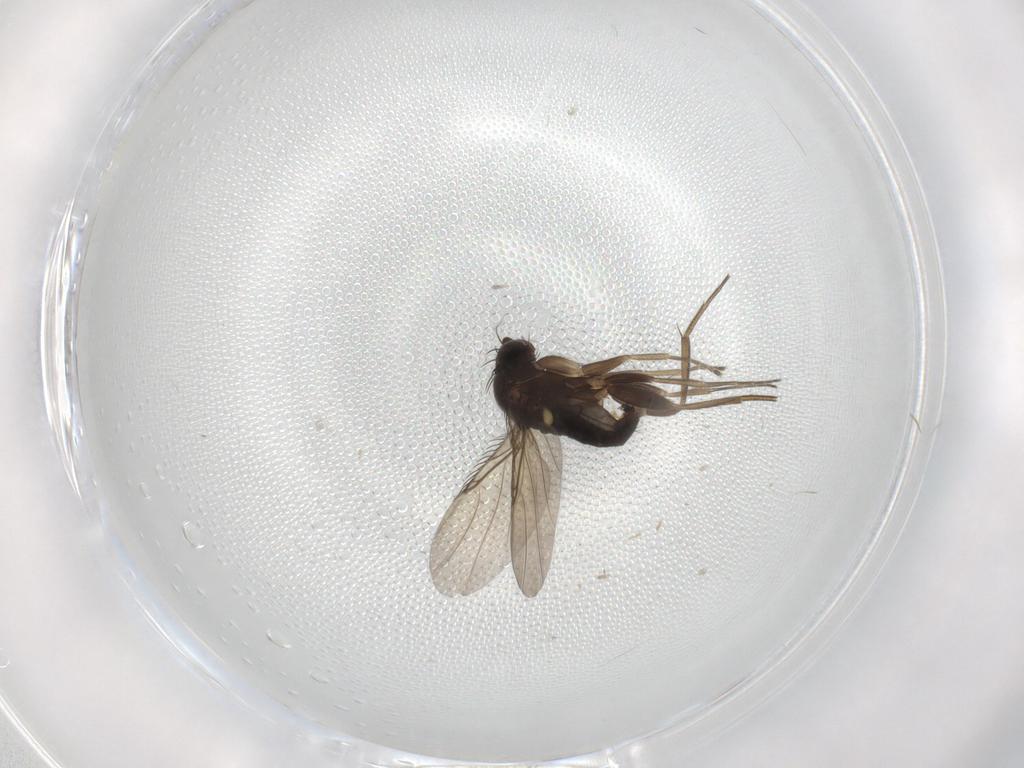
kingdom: Animalia
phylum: Arthropoda
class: Insecta
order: Diptera
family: Phoridae
